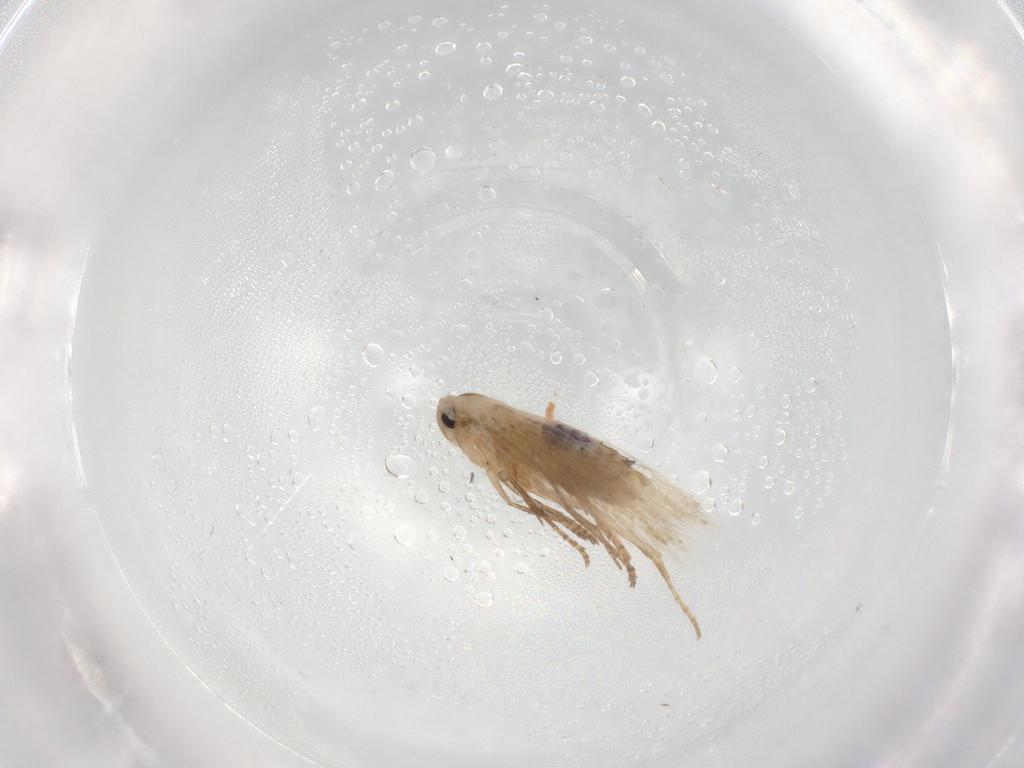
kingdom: Animalia
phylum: Arthropoda
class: Insecta
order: Lepidoptera
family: Bucculatricidae
